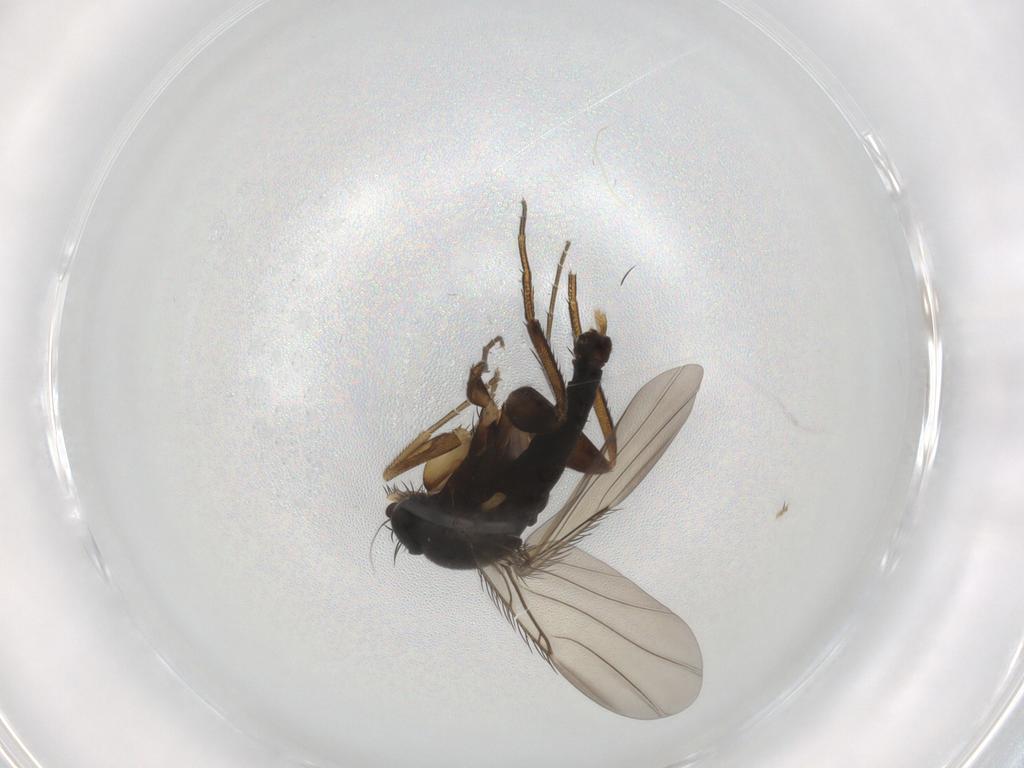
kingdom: Animalia
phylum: Arthropoda
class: Insecta
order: Diptera
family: Phoridae
